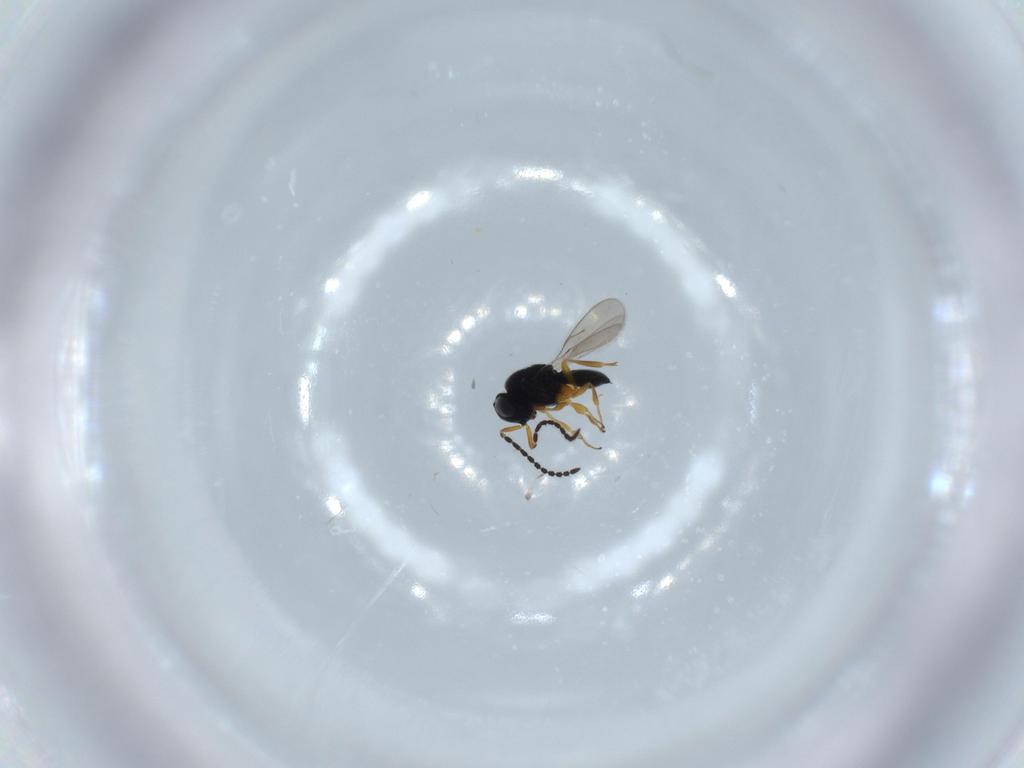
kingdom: Animalia
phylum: Arthropoda
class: Insecta
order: Hymenoptera
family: Scelionidae
